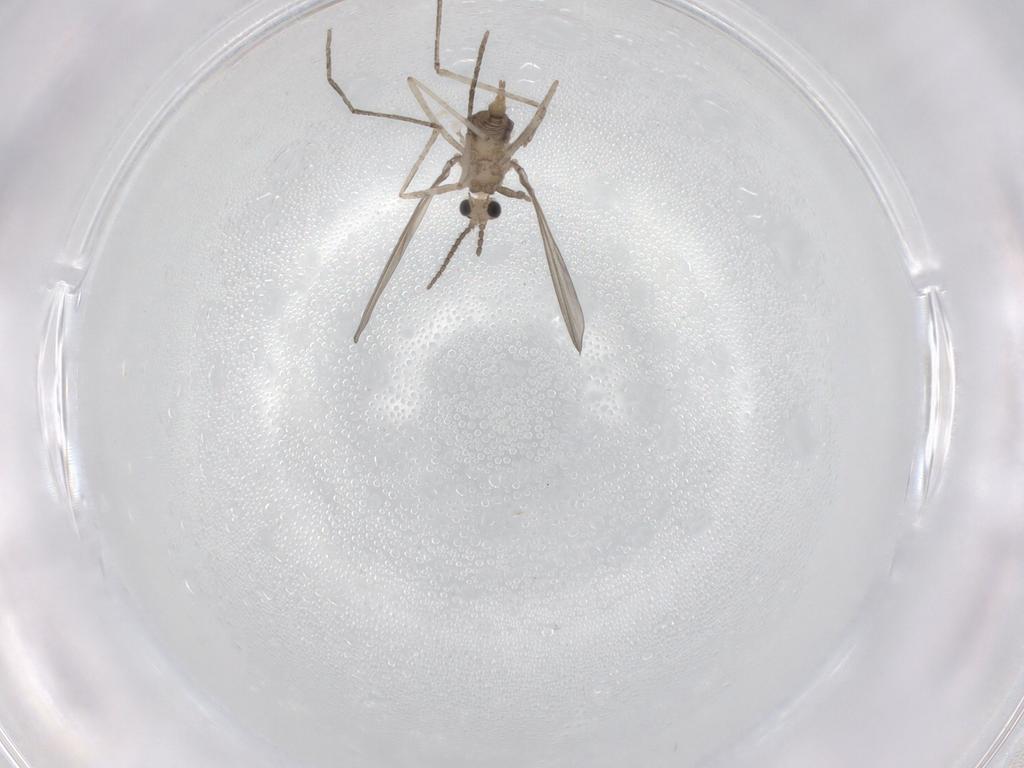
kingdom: Animalia
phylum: Arthropoda
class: Insecta
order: Diptera
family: Cecidomyiidae
